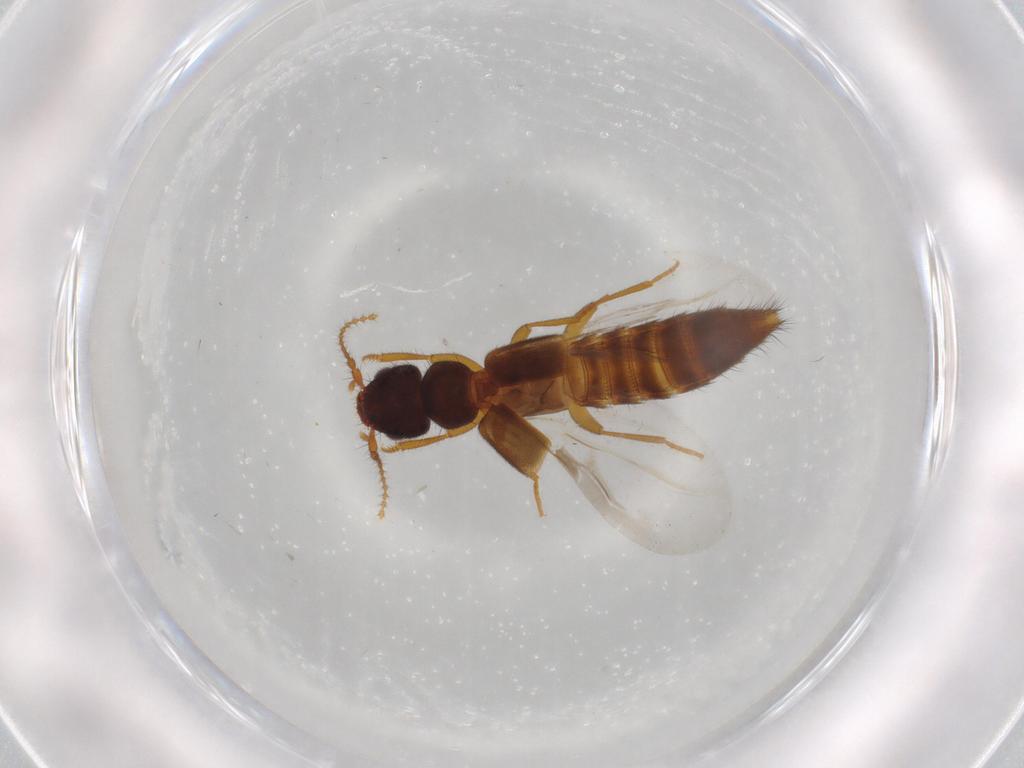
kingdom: Animalia
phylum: Arthropoda
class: Insecta
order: Coleoptera
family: Staphylinidae
